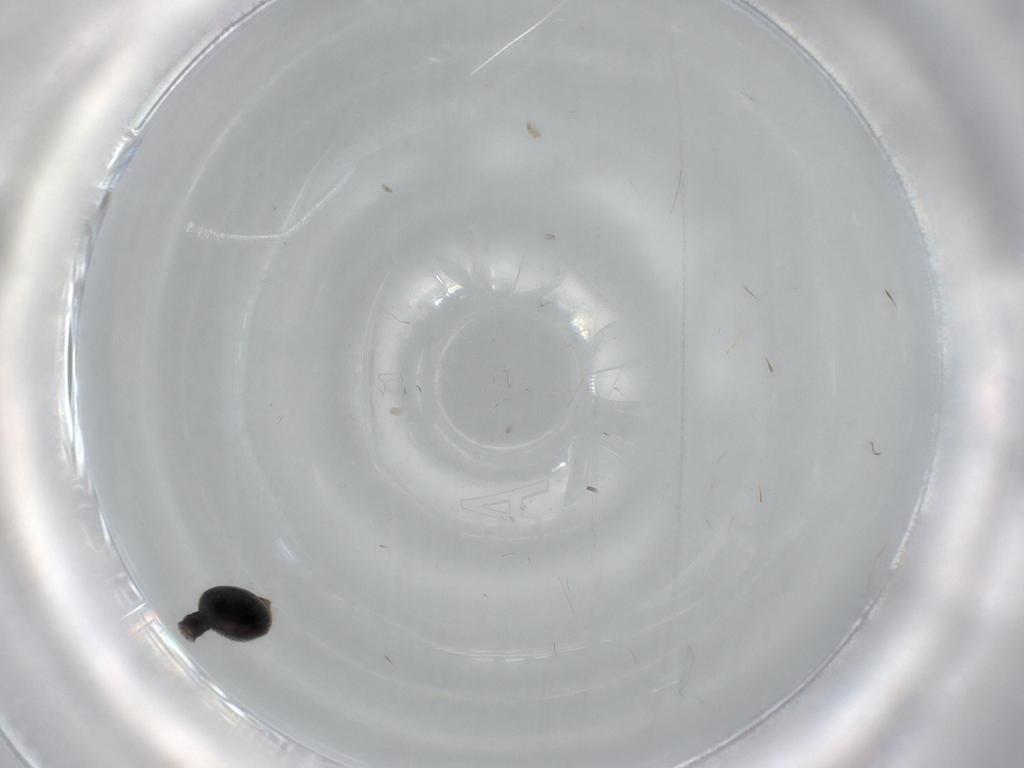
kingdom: Animalia
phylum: Arthropoda
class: Insecta
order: Hymenoptera
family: Diapriidae
